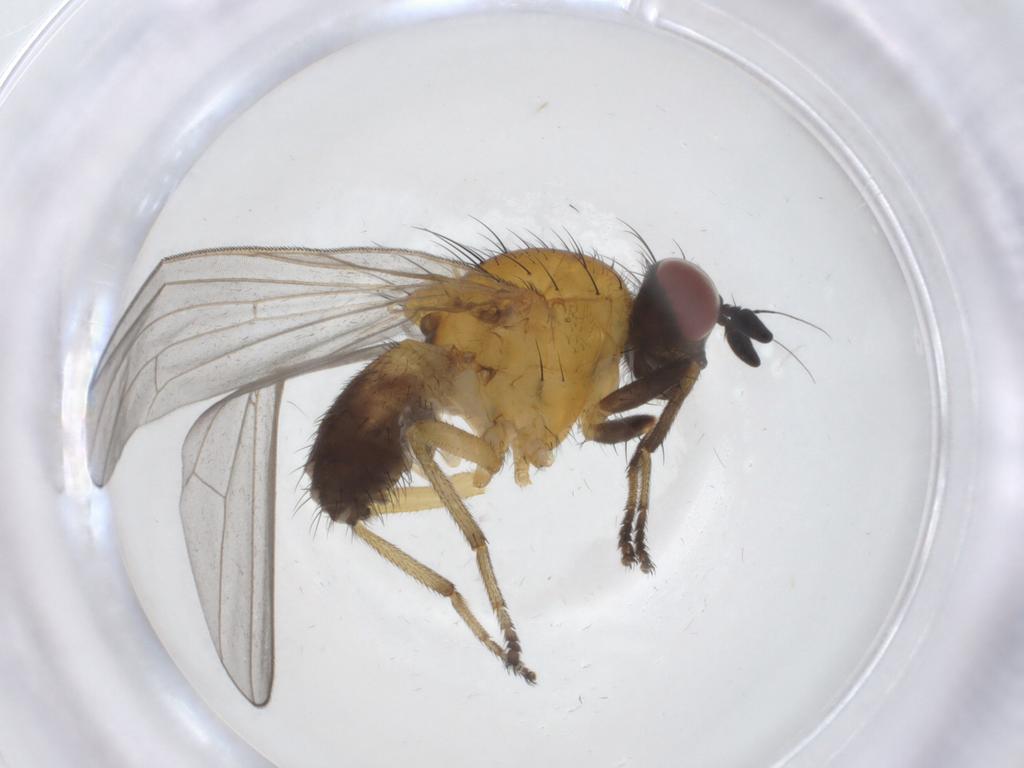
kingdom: Animalia
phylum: Arthropoda
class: Insecta
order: Diptera
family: Lauxaniidae
